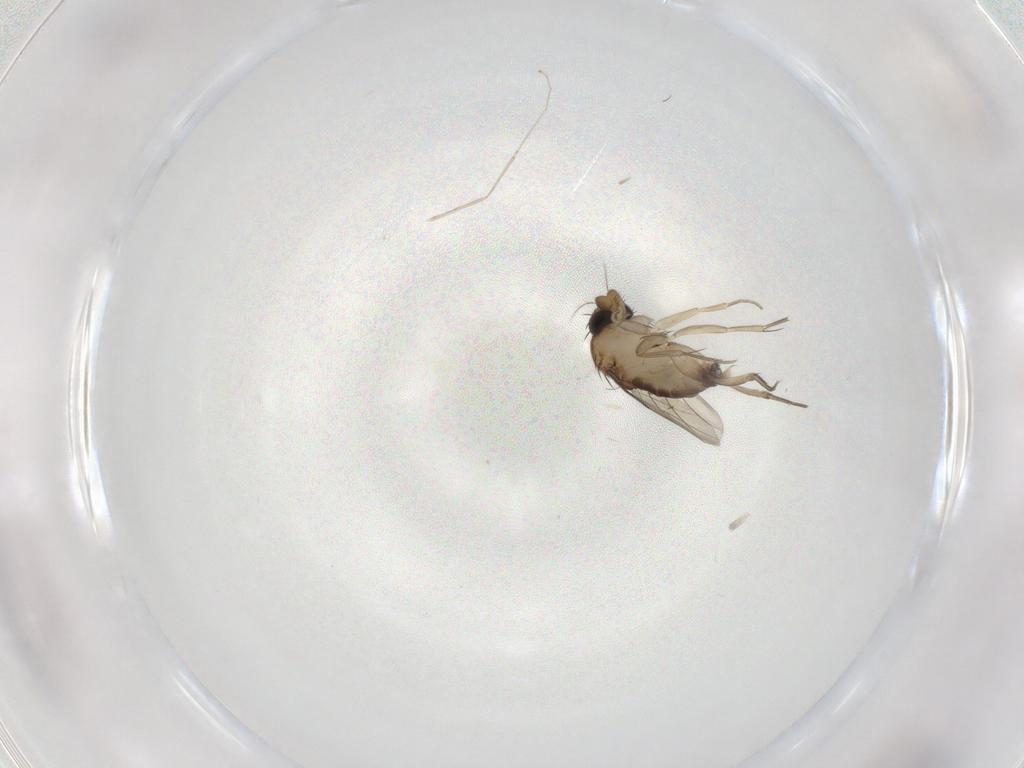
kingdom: Animalia
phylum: Arthropoda
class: Insecta
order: Diptera
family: Phoridae
